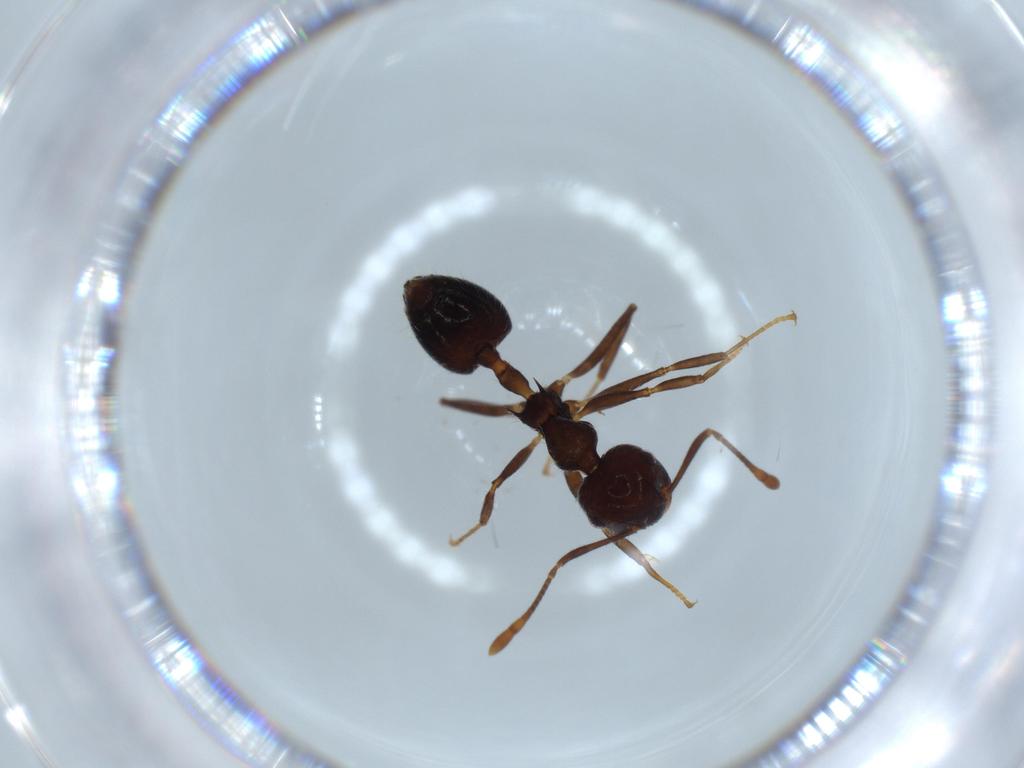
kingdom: Animalia
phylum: Arthropoda
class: Insecta
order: Hymenoptera
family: Formicidae
